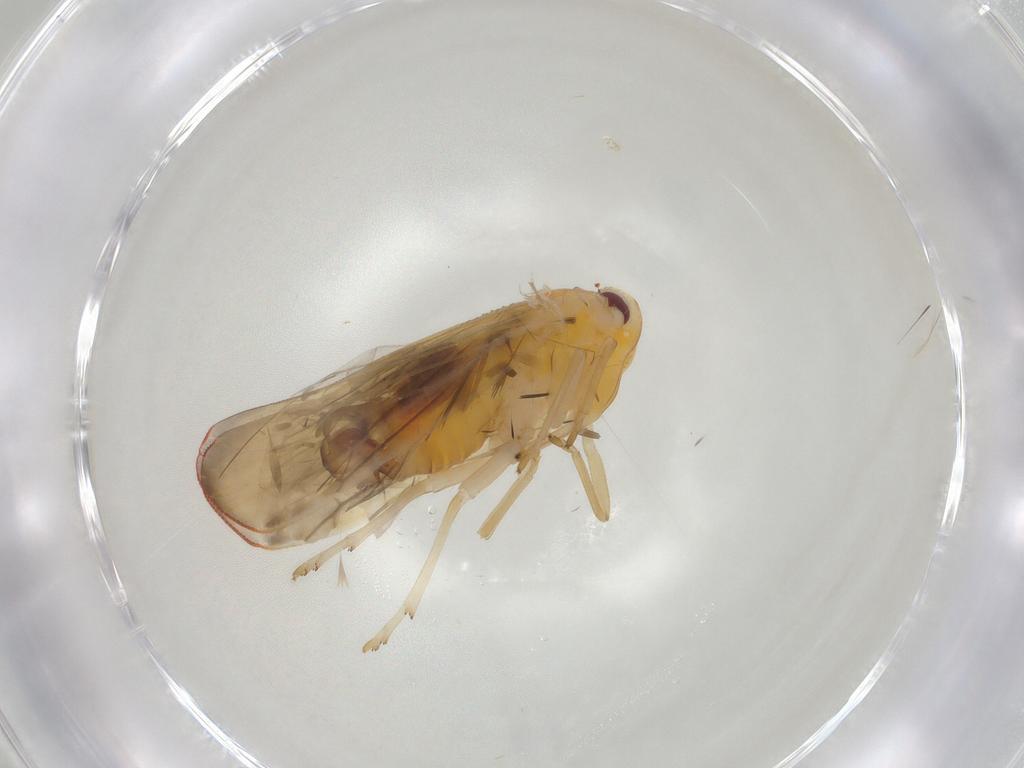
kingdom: Animalia
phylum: Arthropoda
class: Insecta
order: Hemiptera
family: Derbidae
